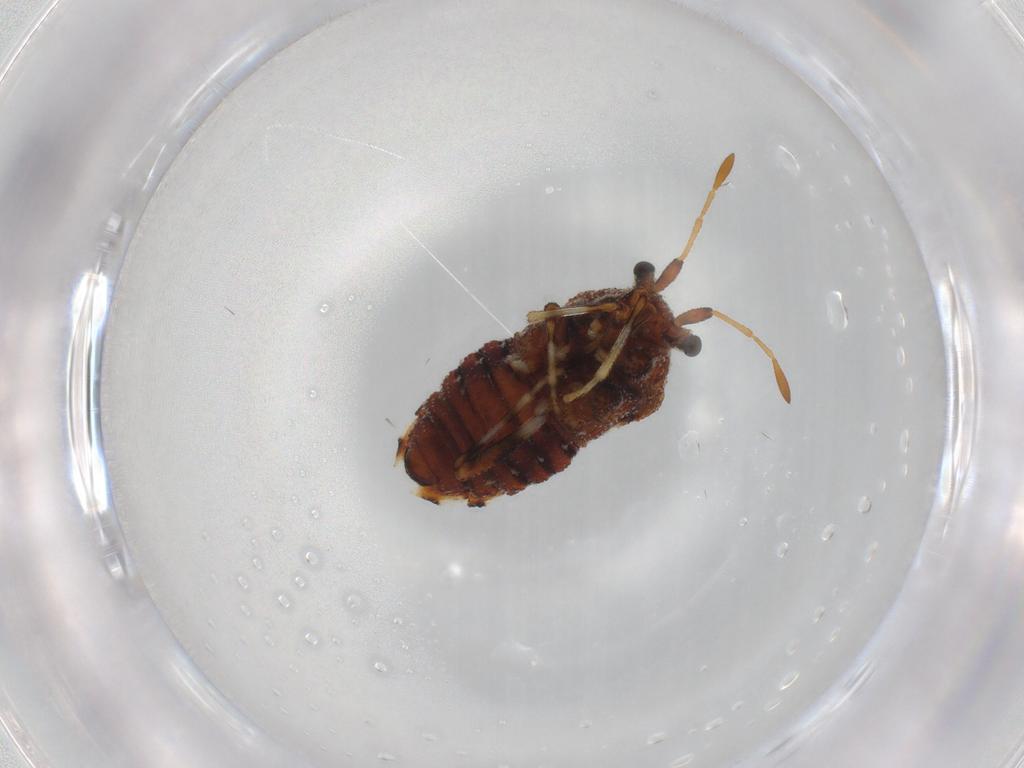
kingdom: Animalia
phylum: Arthropoda
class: Insecta
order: Hemiptera
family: Malcidae
